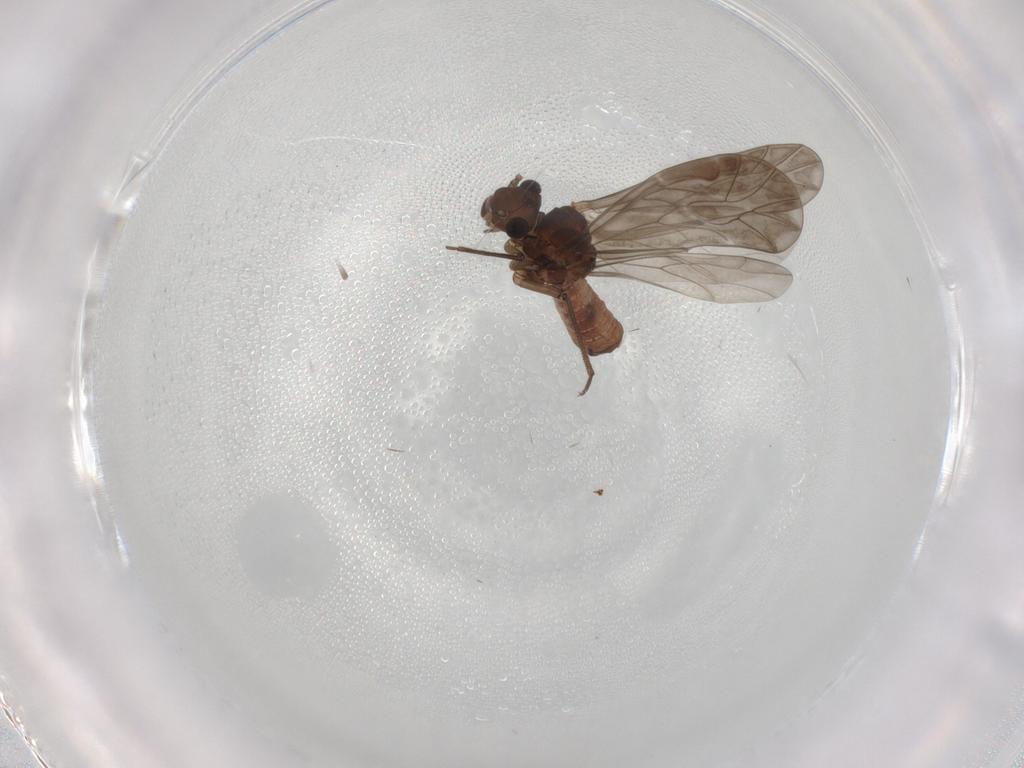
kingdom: Animalia
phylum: Arthropoda
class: Insecta
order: Psocodea
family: Peripsocidae
